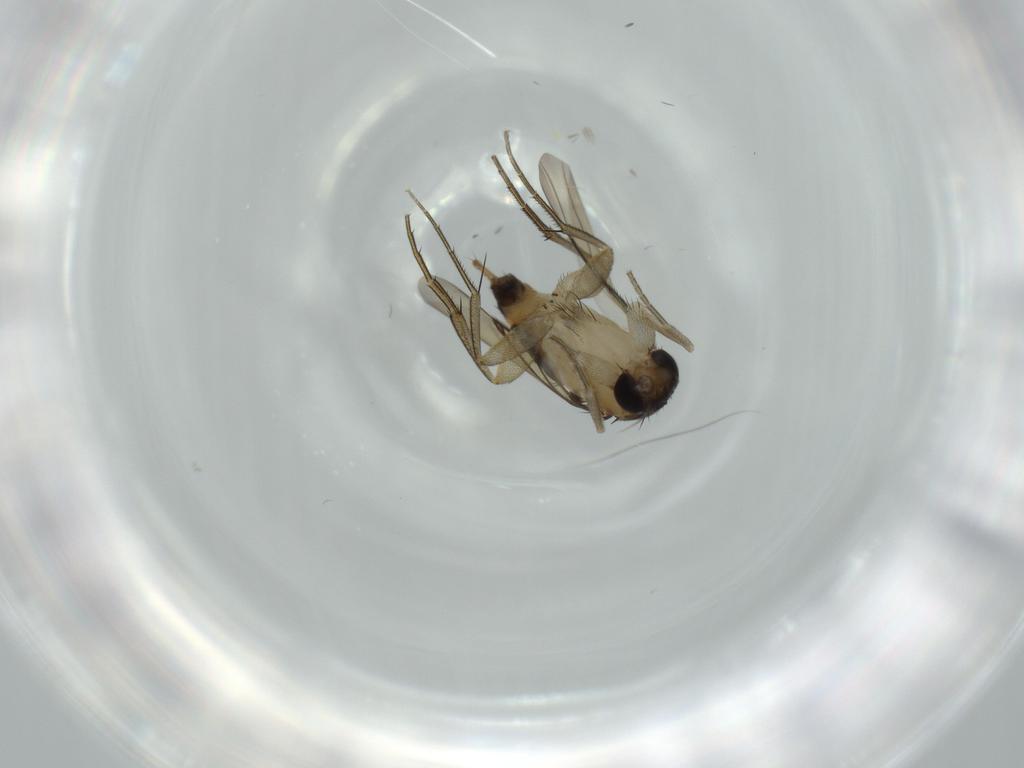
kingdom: Animalia
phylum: Arthropoda
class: Insecta
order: Diptera
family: Phoridae
